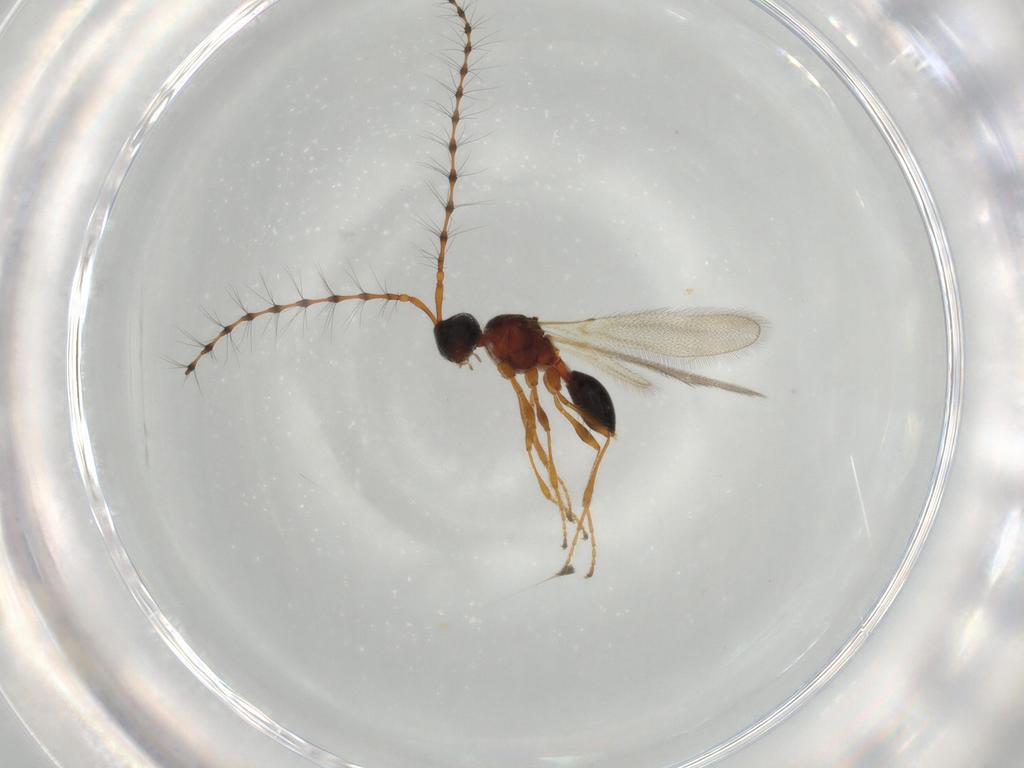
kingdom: Animalia
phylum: Arthropoda
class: Insecta
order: Hymenoptera
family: Diapriidae
